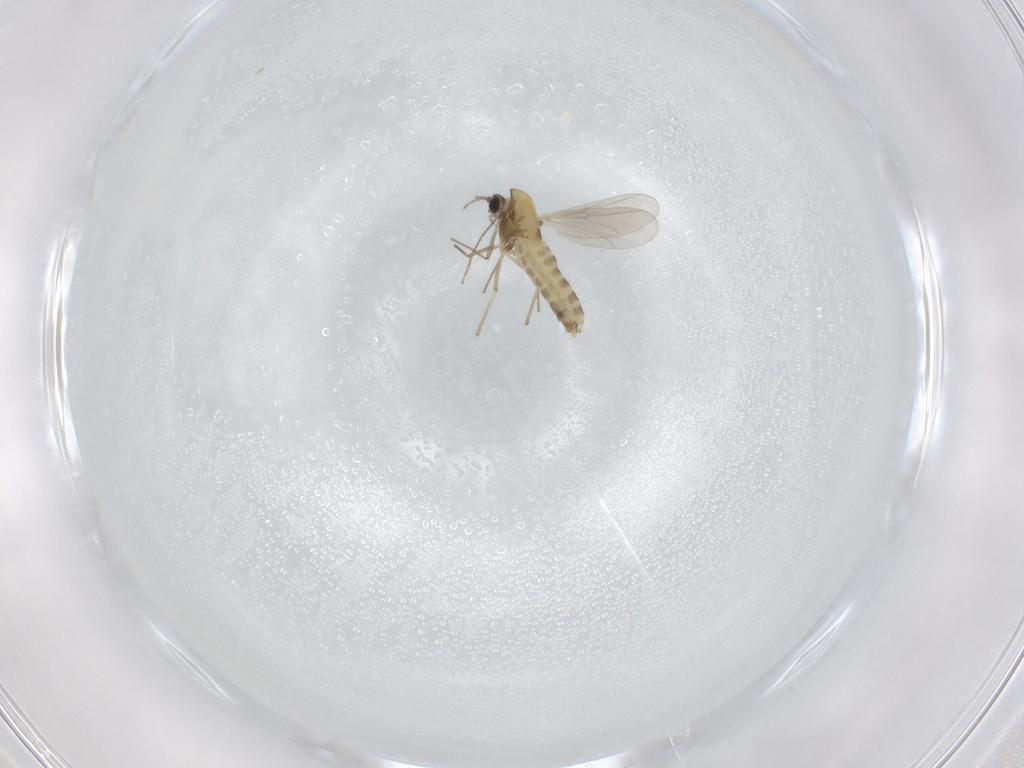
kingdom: Animalia
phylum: Arthropoda
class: Insecta
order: Diptera
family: Chironomidae
